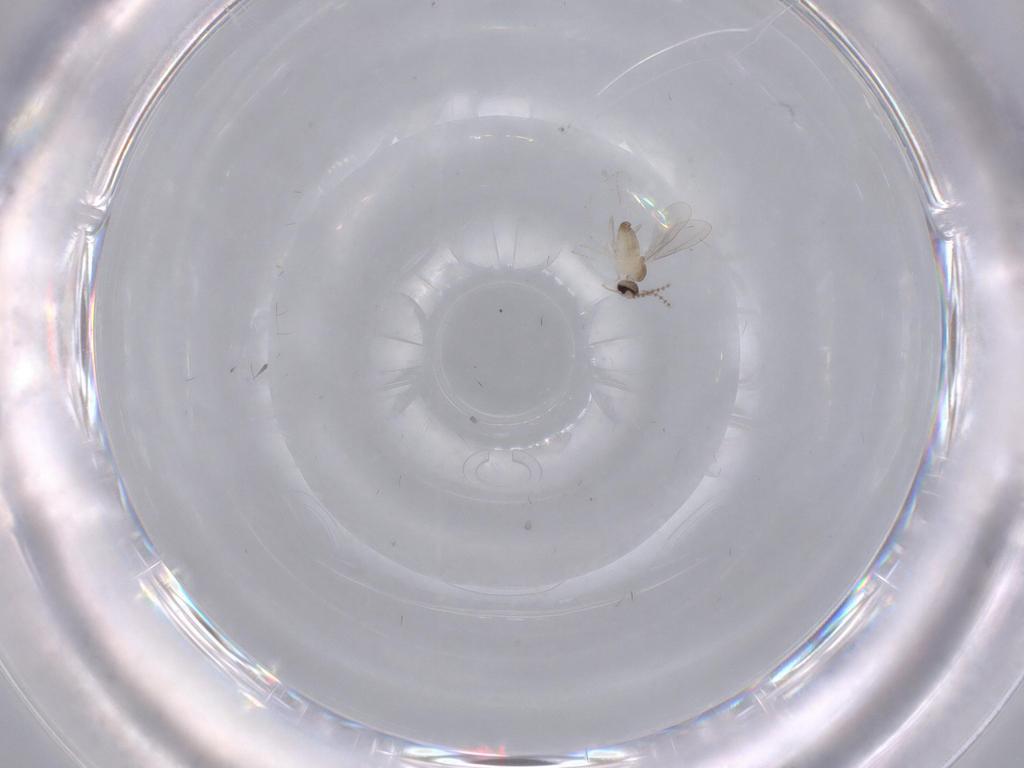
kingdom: Animalia
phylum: Arthropoda
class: Insecta
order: Diptera
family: Cecidomyiidae
